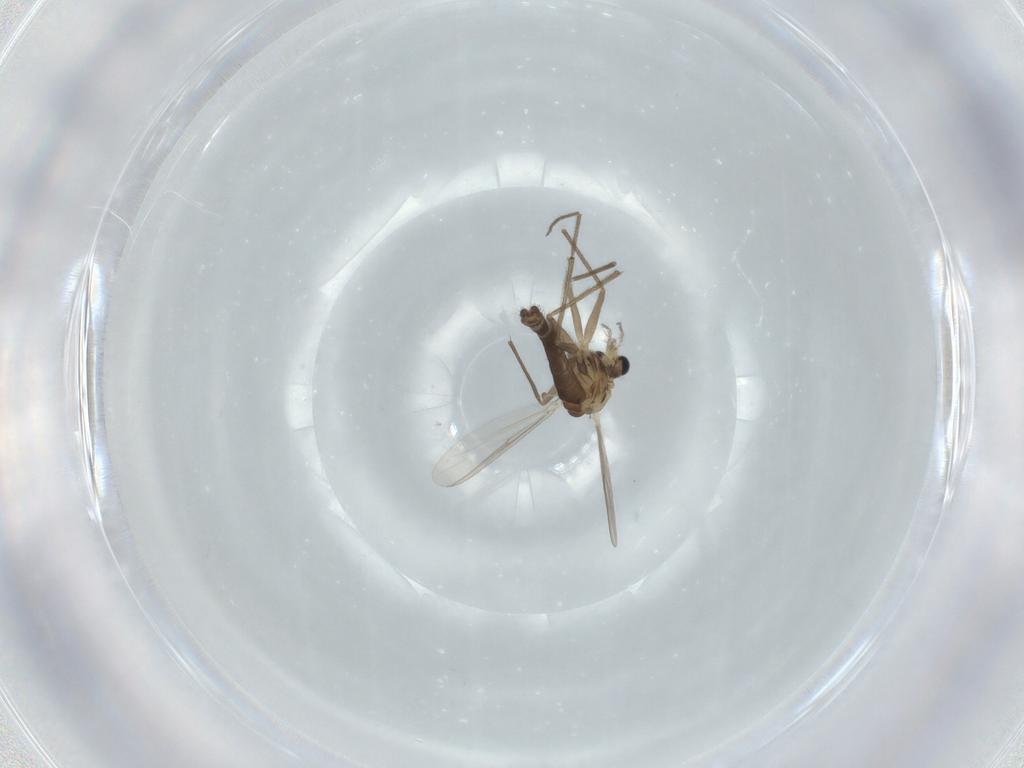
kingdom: Animalia
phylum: Arthropoda
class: Insecta
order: Diptera
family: Chironomidae
